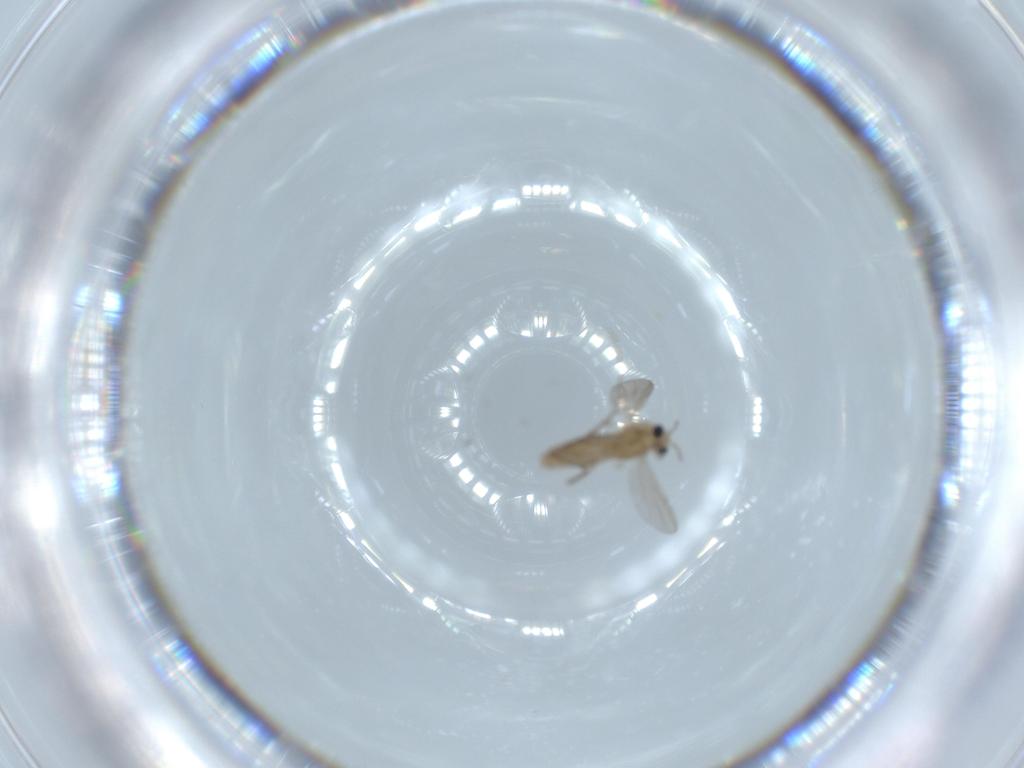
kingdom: Animalia
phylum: Arthropoda
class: Insecta
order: Diptera
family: Chironomidae
